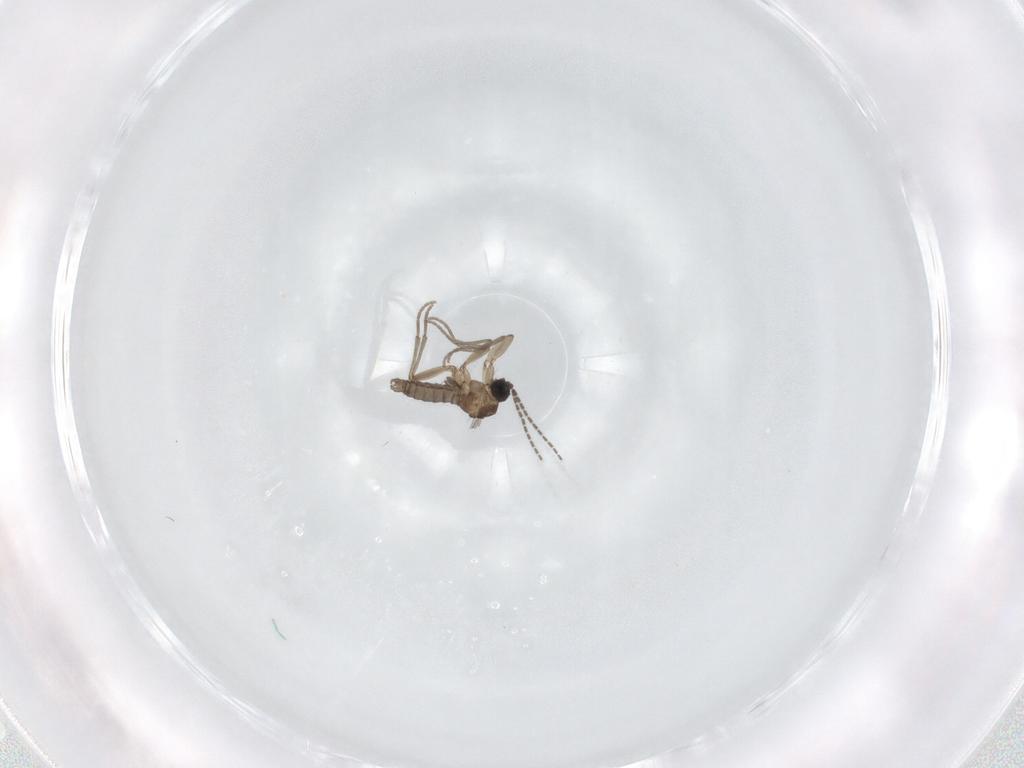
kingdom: Animalia
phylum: Arthropoda
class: Insecta
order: Diptera
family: Sciaridae
